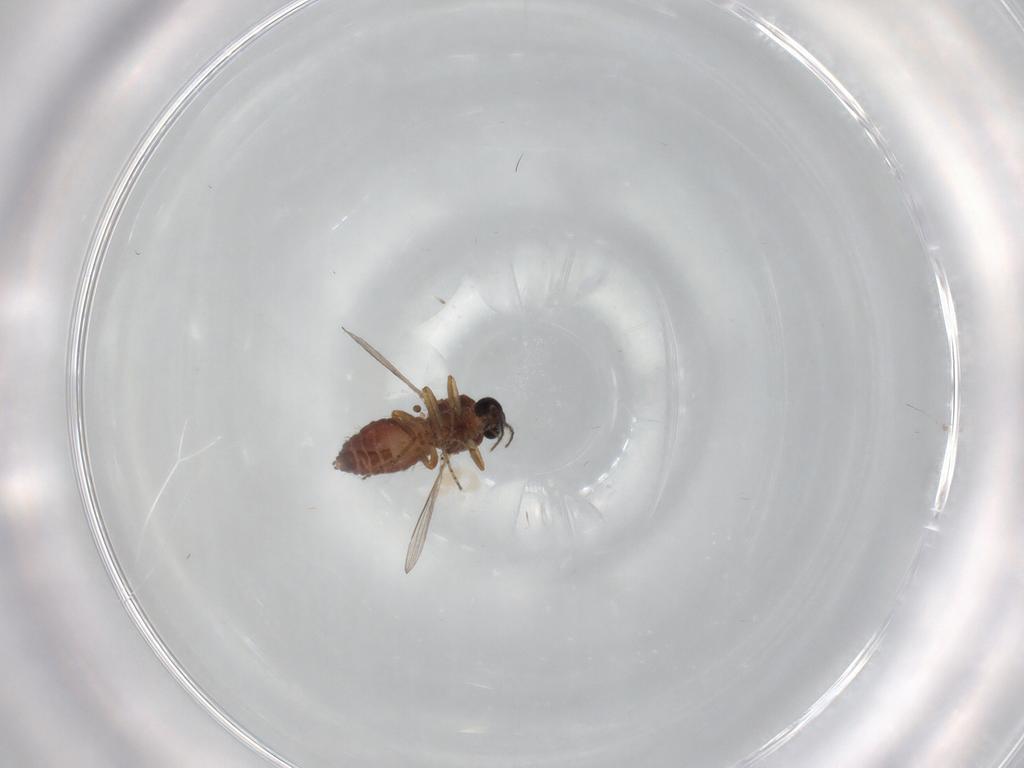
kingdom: Animalia
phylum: Arthropoda
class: Insecta
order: Diptera
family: Ceratopogonidae
